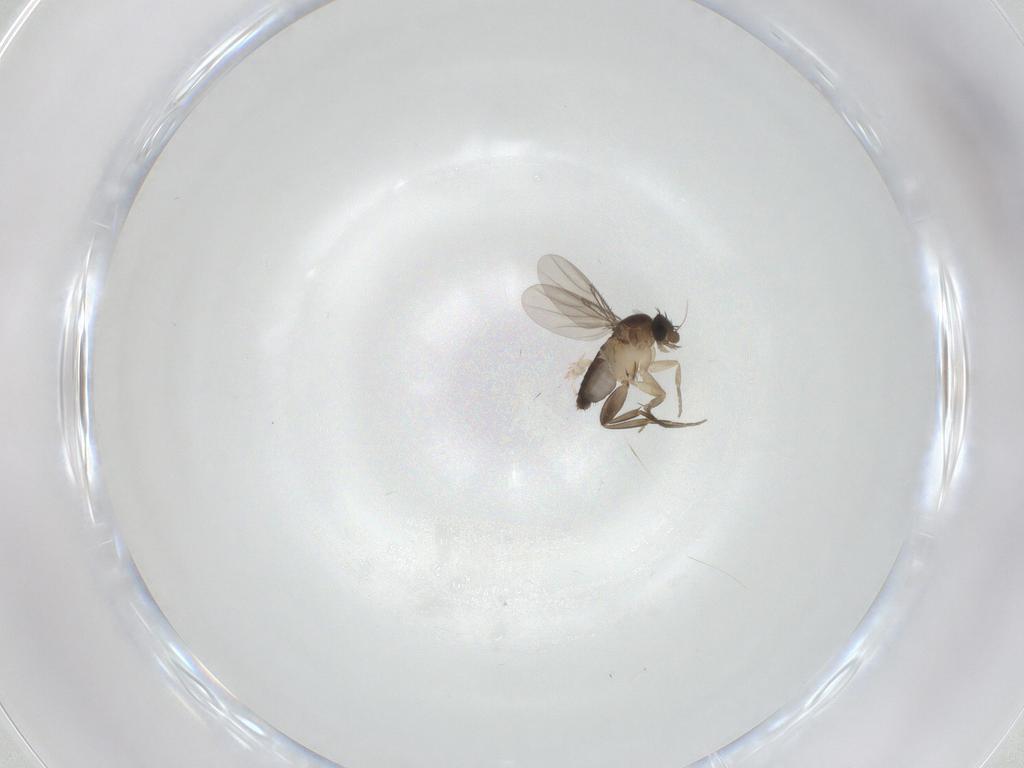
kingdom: Animalia
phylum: Arthropoda
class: Insecta
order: Diptera
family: Phoridae
